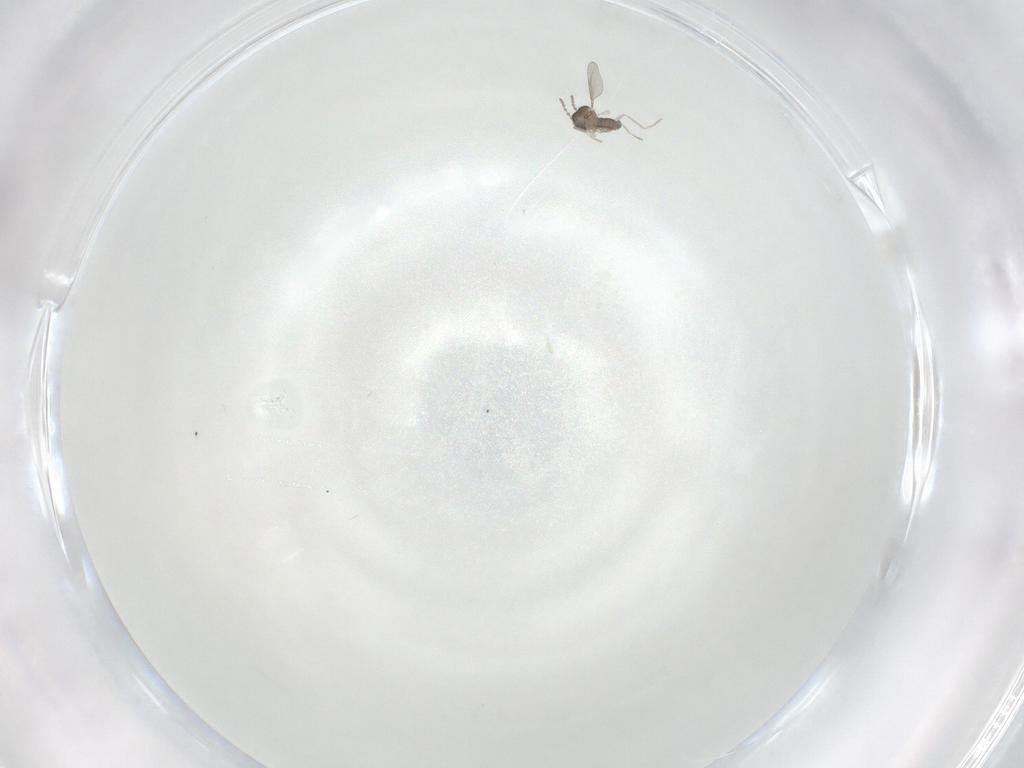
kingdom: Animalia
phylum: Arthropoda
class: Insecta
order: Diptera
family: Cecidomyiidae
